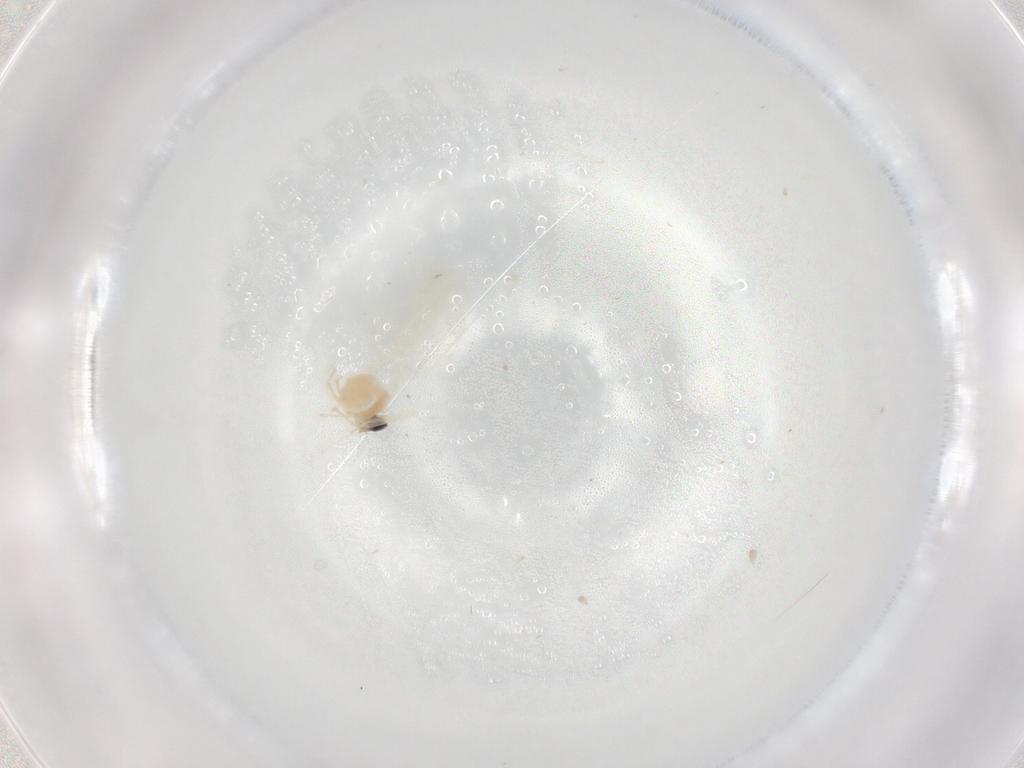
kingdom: Animalia
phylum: Arthropoda
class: Insecta
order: Diptera
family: Cecidomyiidae
